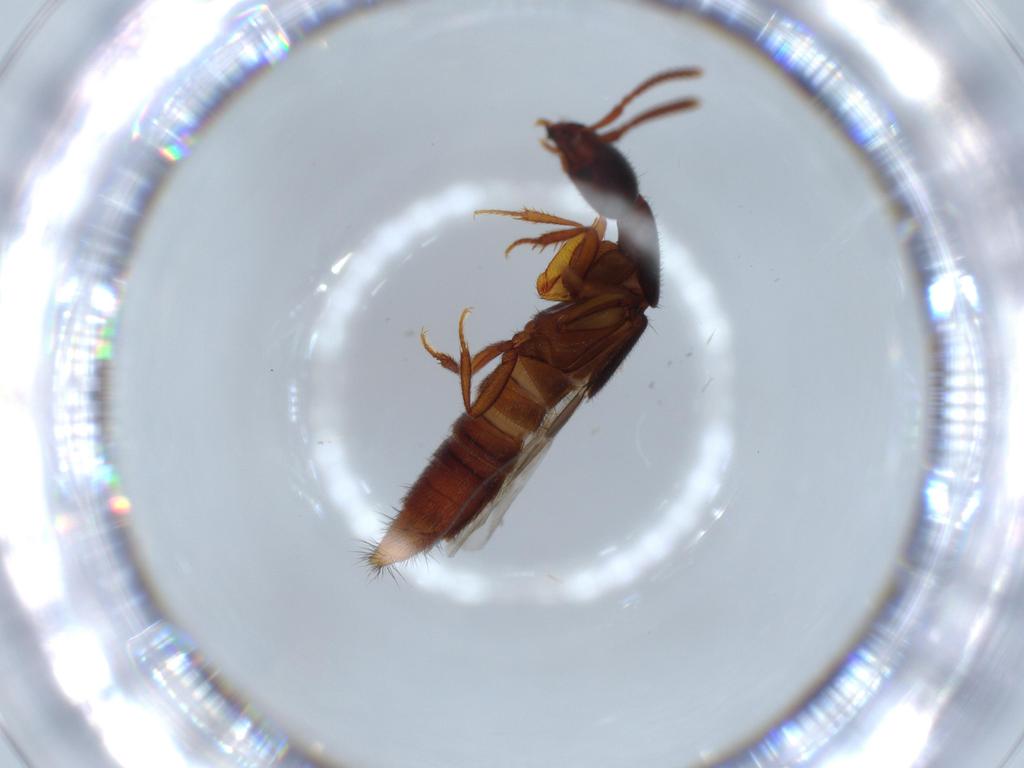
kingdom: Animalia
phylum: Arthropoda
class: Insecta
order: Coleoptera
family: Staphylinidae
